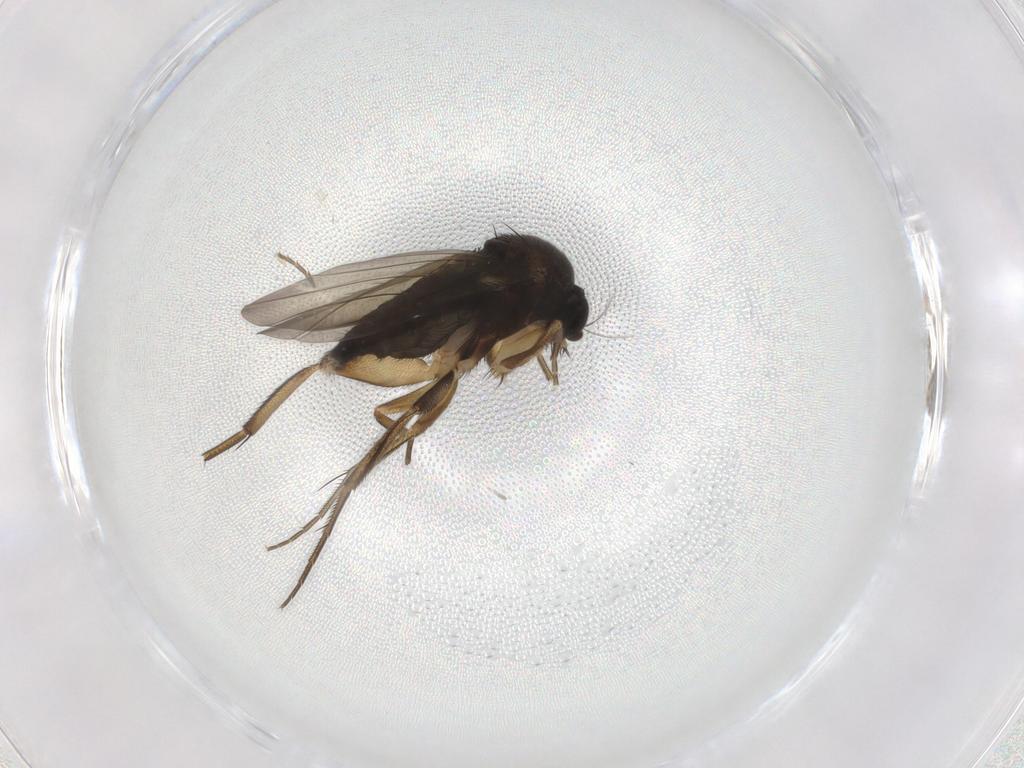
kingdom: Animalia
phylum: Arthropoda
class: Insecta
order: Diptera
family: Phoridae
